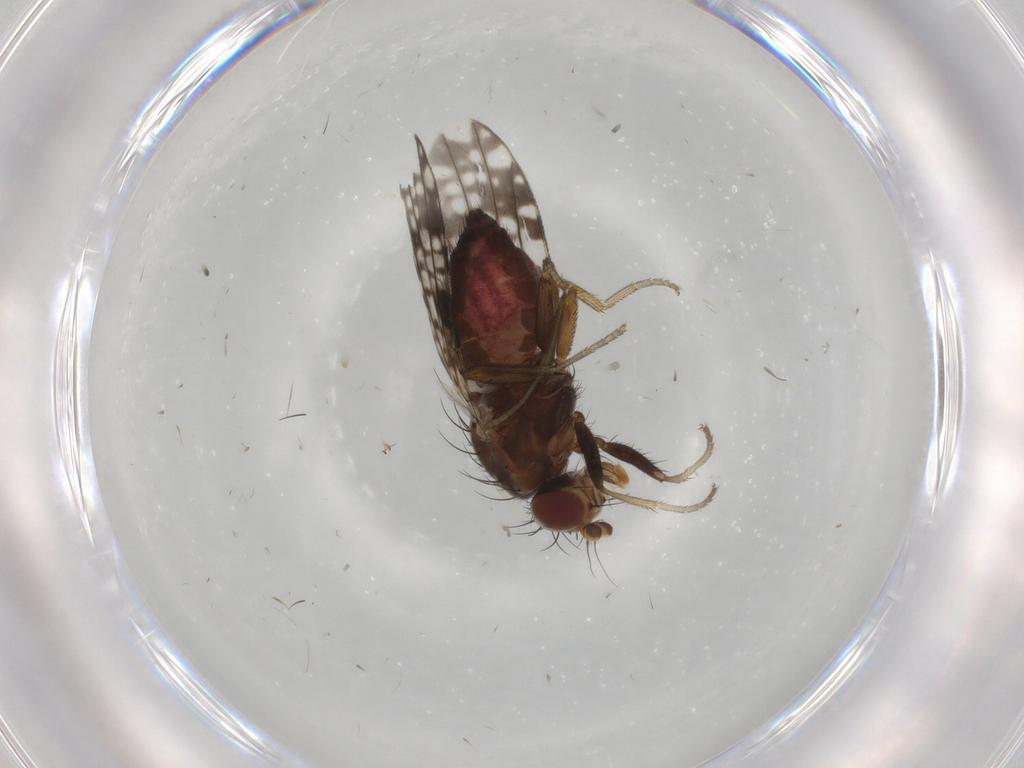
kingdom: Animalia
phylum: Arthropoda
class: Insecta
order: Diptera
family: Tephritidae
